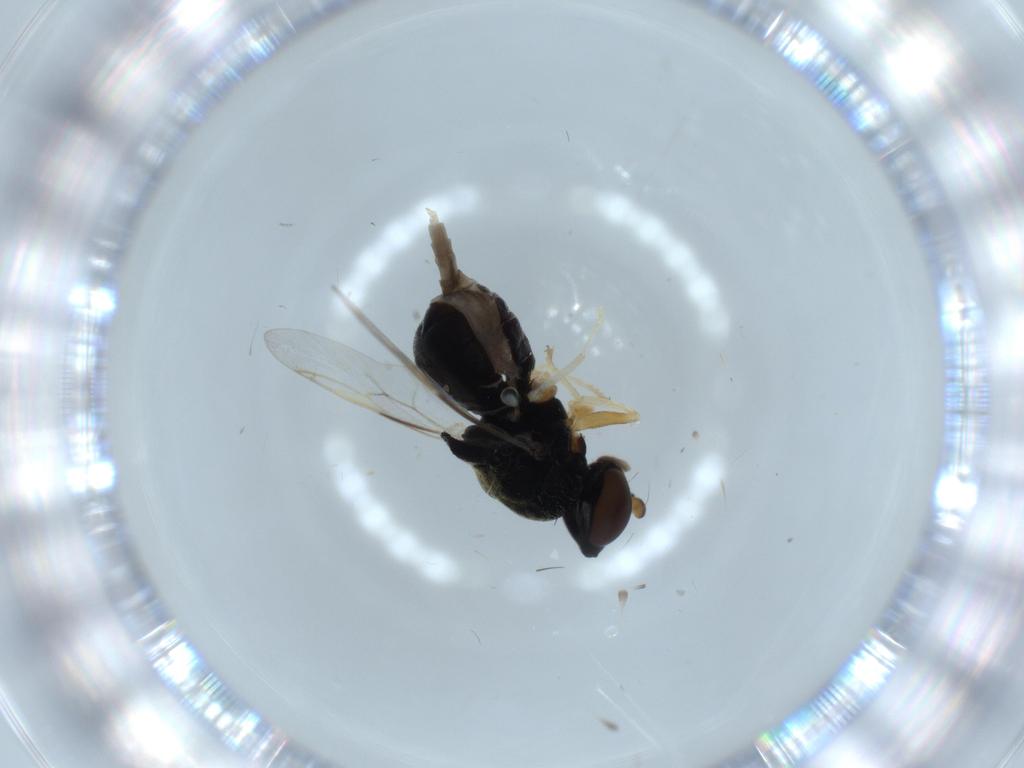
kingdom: Animalia
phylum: Arthropoda
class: Insecta
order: Diptera
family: Stratiomyidae
